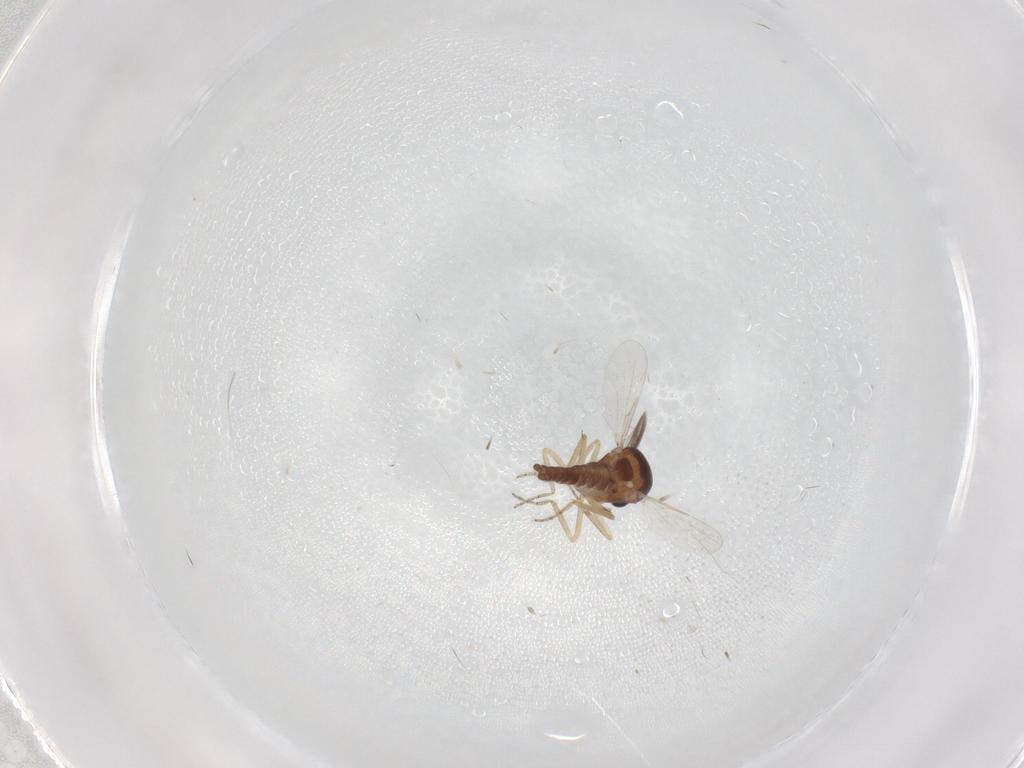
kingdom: Animalia
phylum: Arthropoda
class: Insecta
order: Diptera
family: Ceratopogonidae
